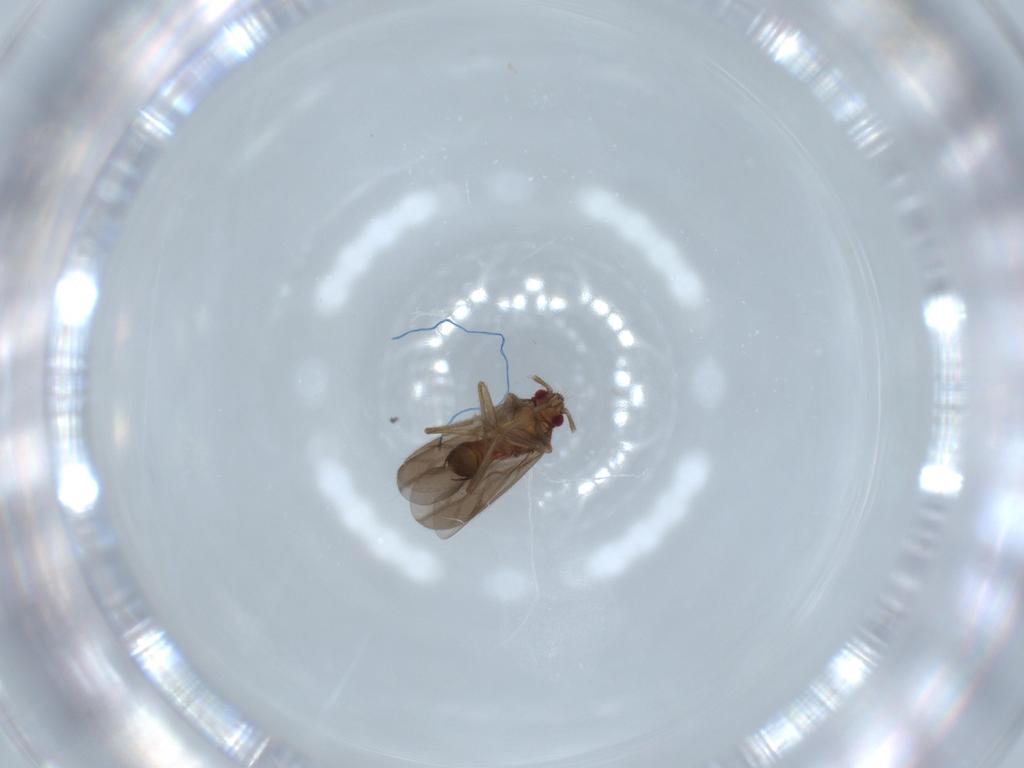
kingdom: Animalia
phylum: Arthropoda
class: Insecta
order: Hemiptera
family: Ceratocombidae
